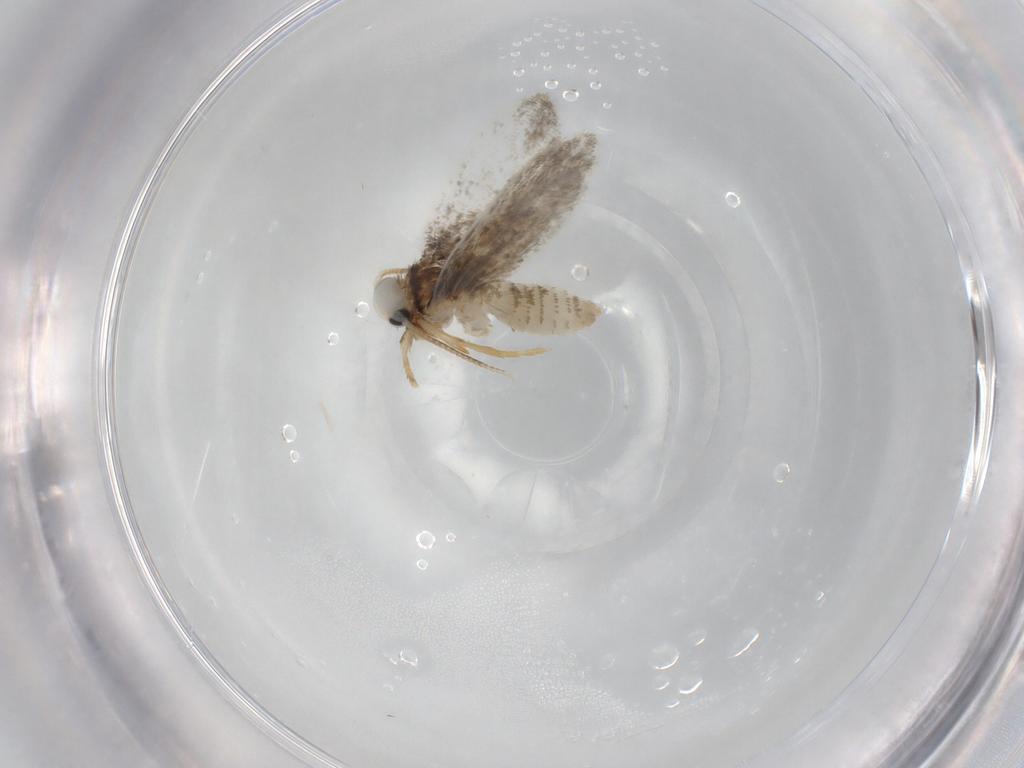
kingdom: Animalia
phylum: Arthropoda
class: Insecta
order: Lepidoptera
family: Psychidae
